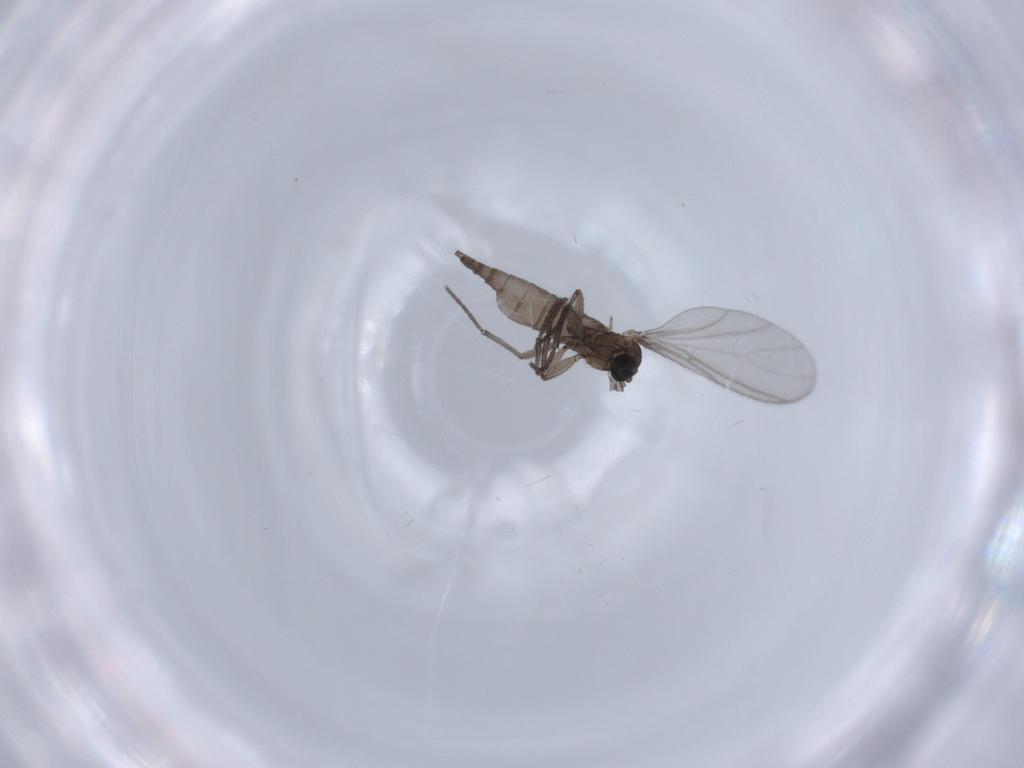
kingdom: Animalia
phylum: Arthropoda
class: Insecta
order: Diptera
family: Sciaridae
